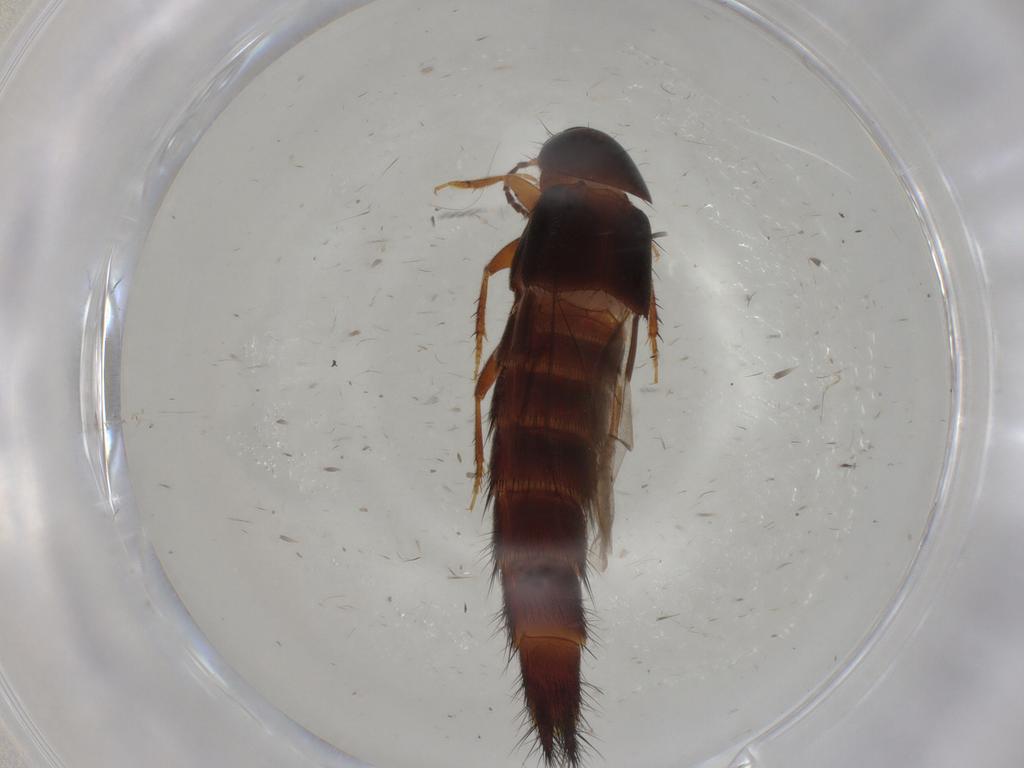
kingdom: Animalia
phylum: Arthropoda
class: Insecta
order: Coleoptera
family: Staphylinidae
